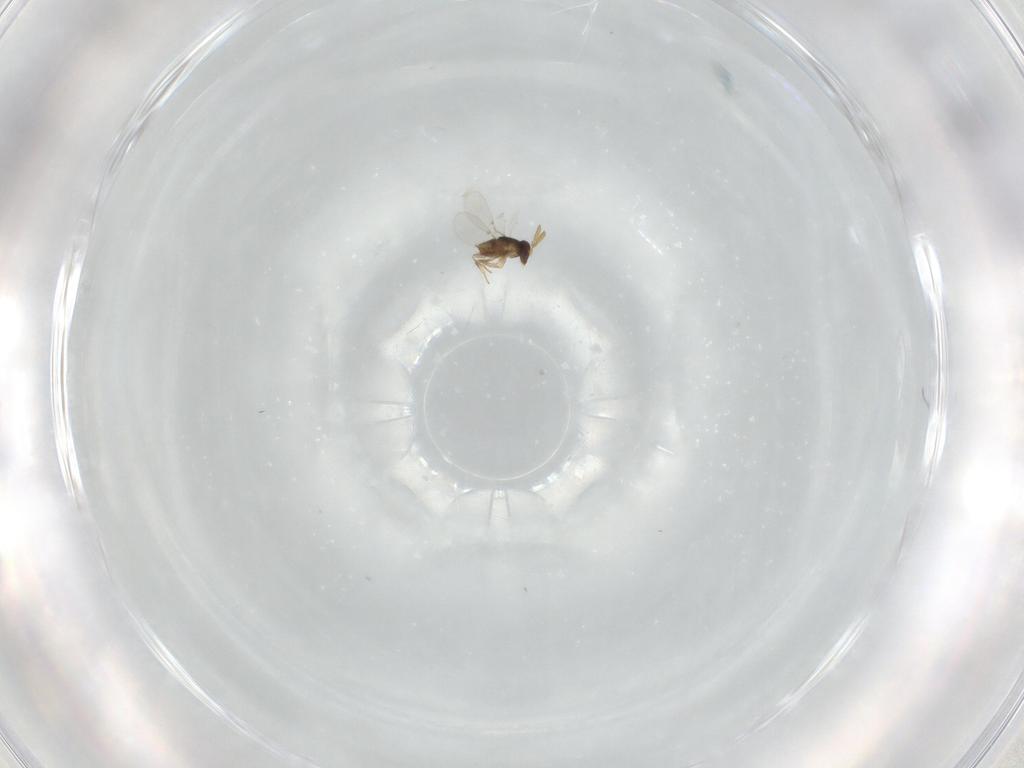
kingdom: Animalia
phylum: Arthropoda
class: Insecta
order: Hymenoptera
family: Encyrtidae
